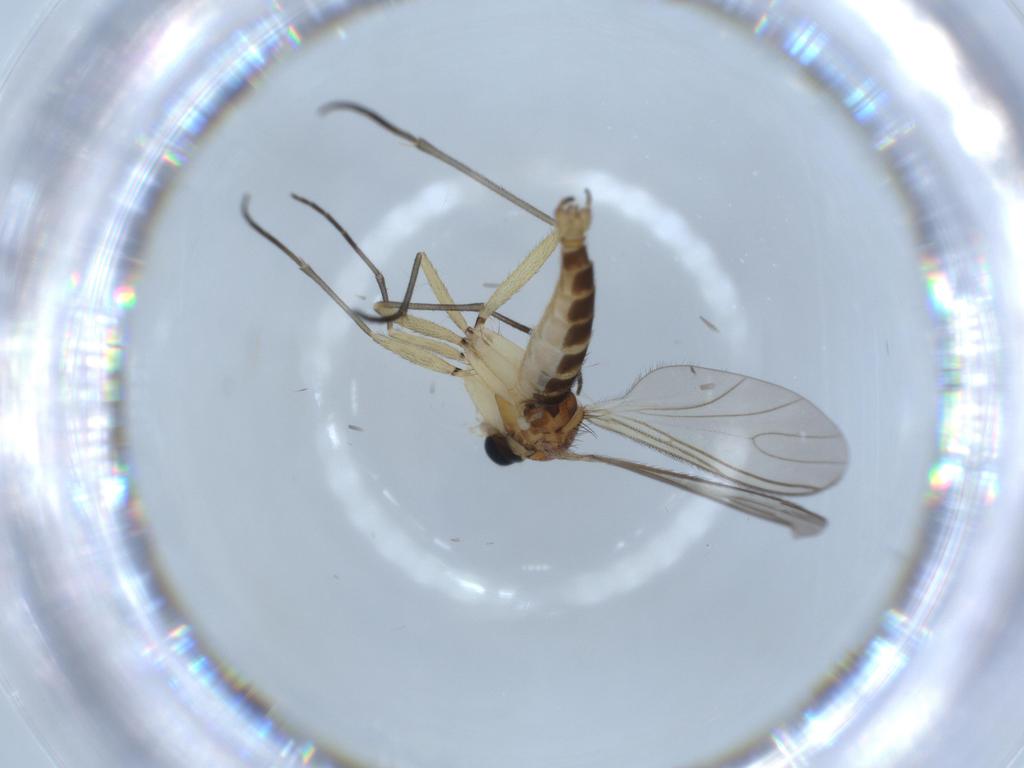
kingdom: Animalia
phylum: Arthropoda
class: Insecta
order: Diptera
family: Sciaridae
